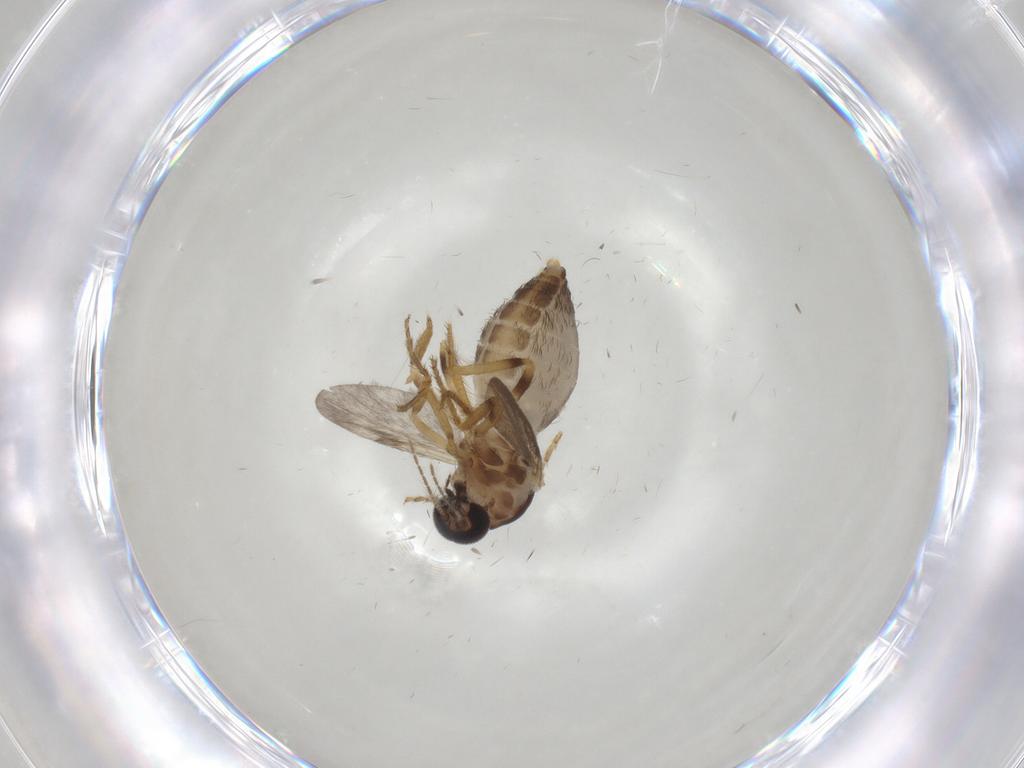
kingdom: Animalia
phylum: Arthropoda
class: Insecta
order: Diptera
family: Ceratopogonidae
